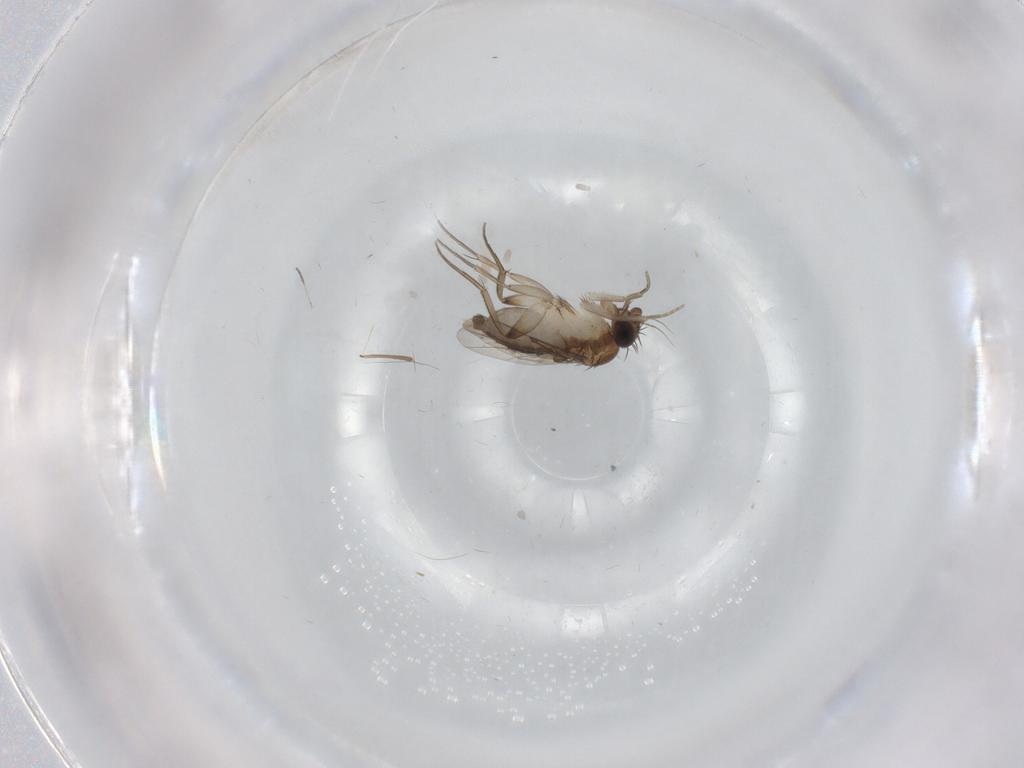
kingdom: Animalia
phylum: Arthropoda
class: Insecta
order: Diptera
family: Phoridae
